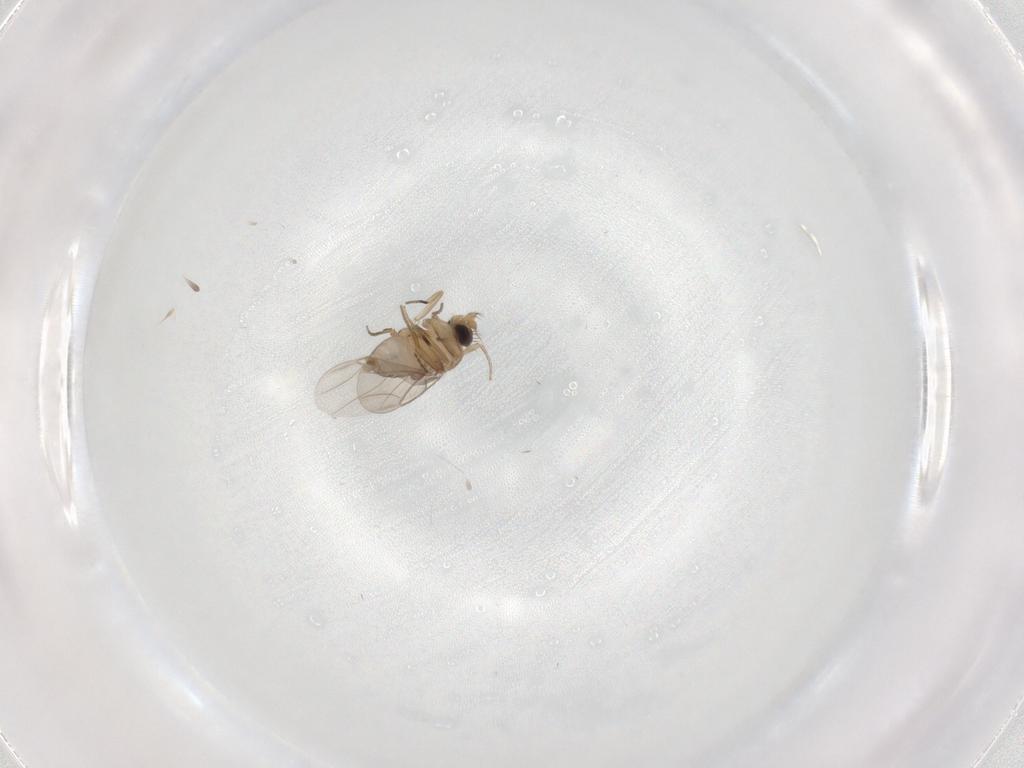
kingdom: Animalia
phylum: Arthropoda
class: Insecta
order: Diptera
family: Phoridae
